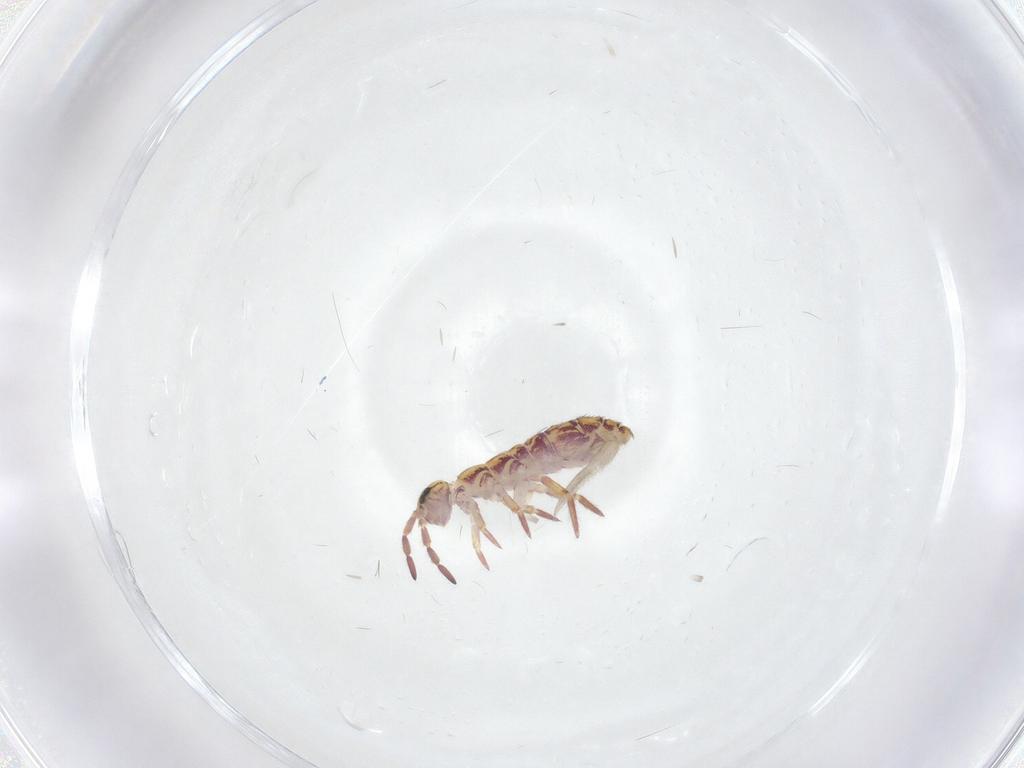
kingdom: Animalia
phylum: Arthropoda
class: Collembola
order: Entomobryomorpha
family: Isotomidae
